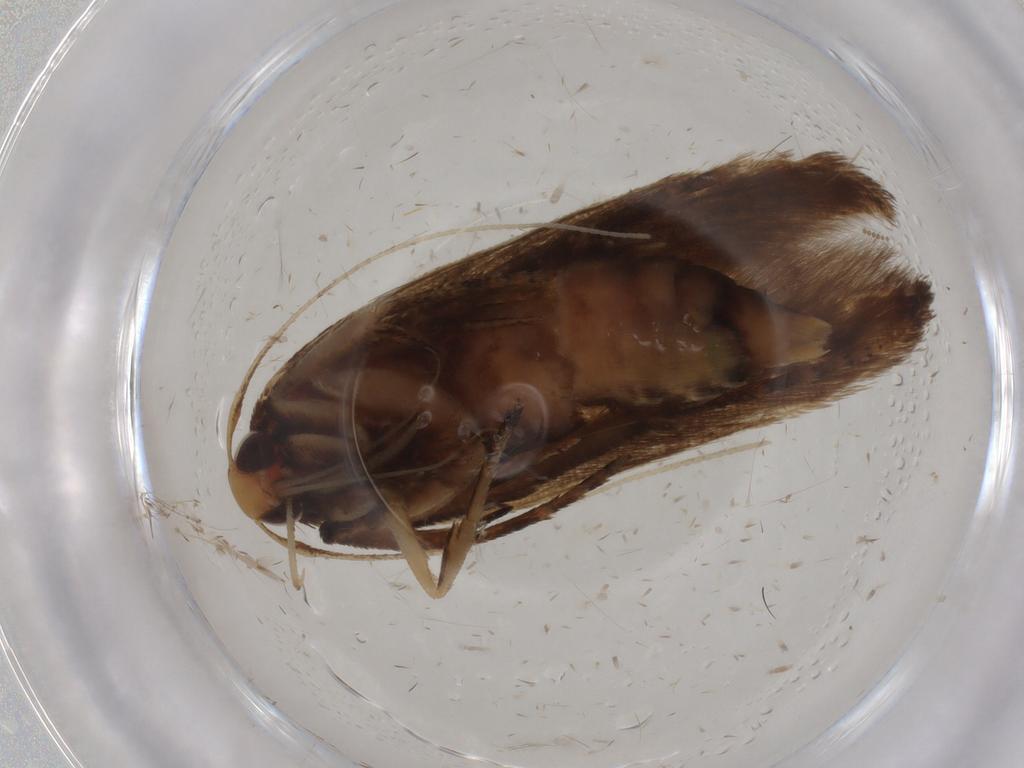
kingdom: Animalia
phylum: Arthropoda
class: Insecta
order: Lepidoptera
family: Cosmopterigidae
